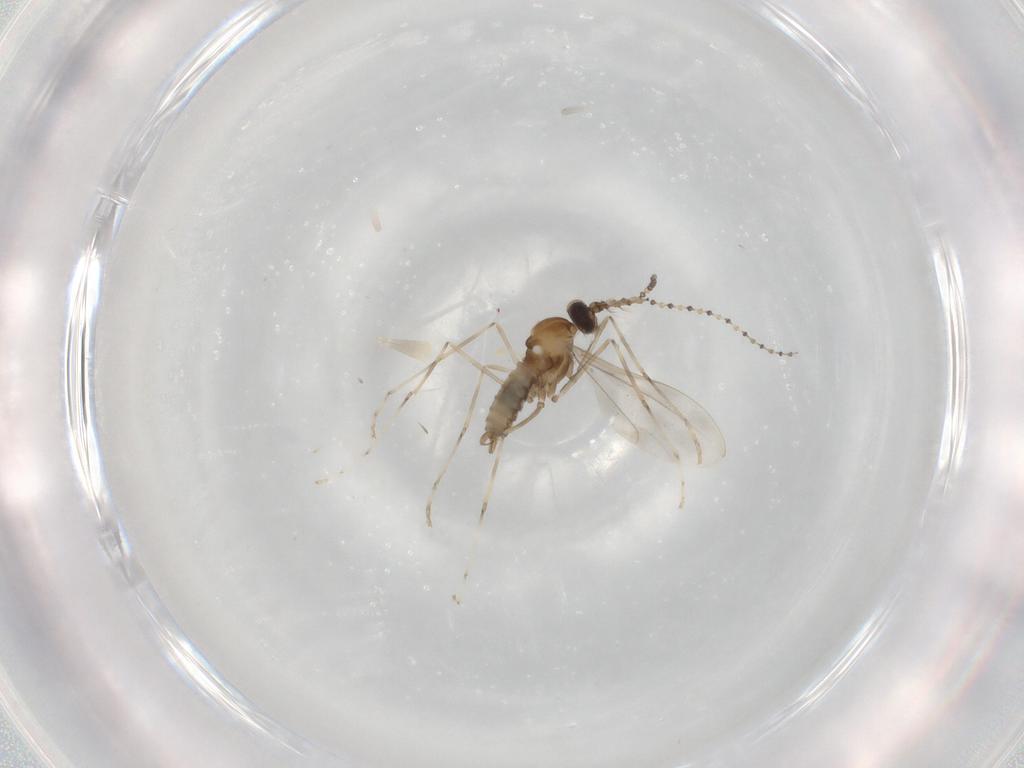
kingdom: Animalia
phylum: Arthropoda
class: Insecta
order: Diptera
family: Cecidomyiidae
